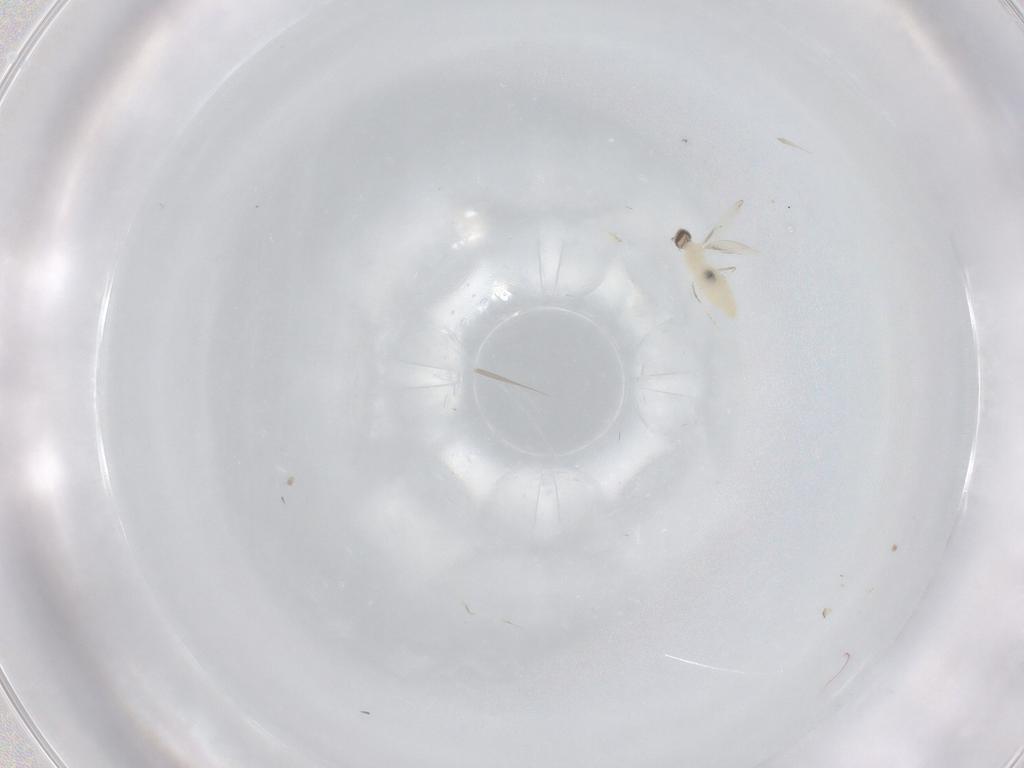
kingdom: Animalia
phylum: Arthropoda
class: Insecta
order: Diptera
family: Cecidomyiidae
